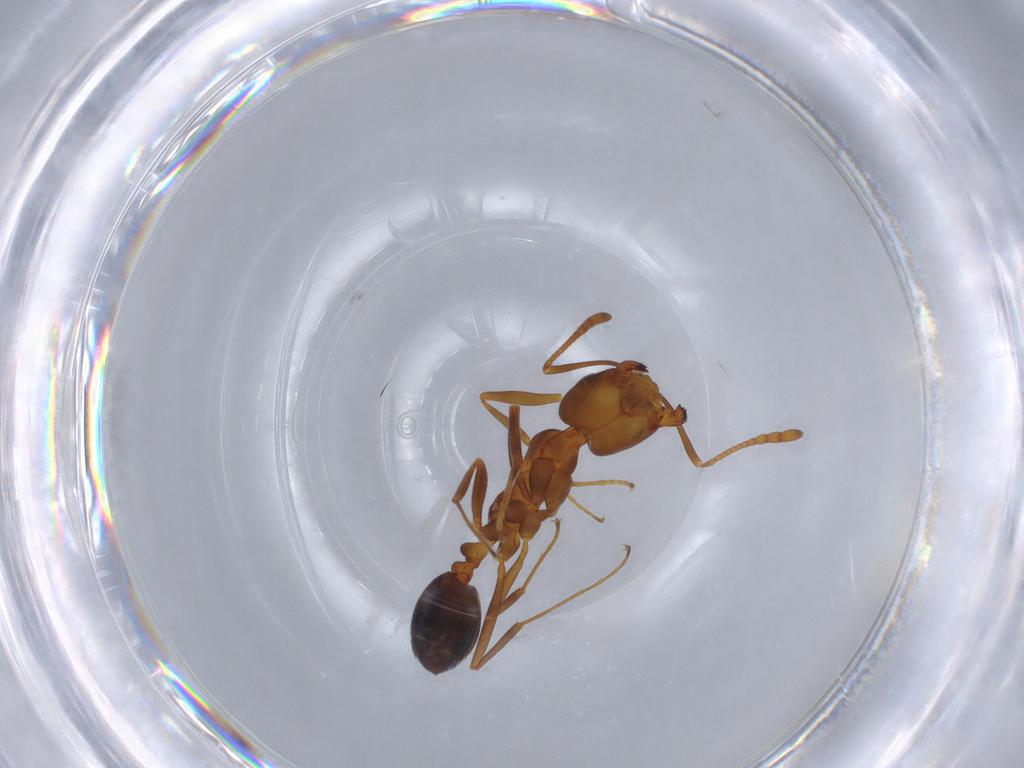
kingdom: Animalia
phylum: Arthropoda
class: Insecta
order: Hymenoptera
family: Formicidae
